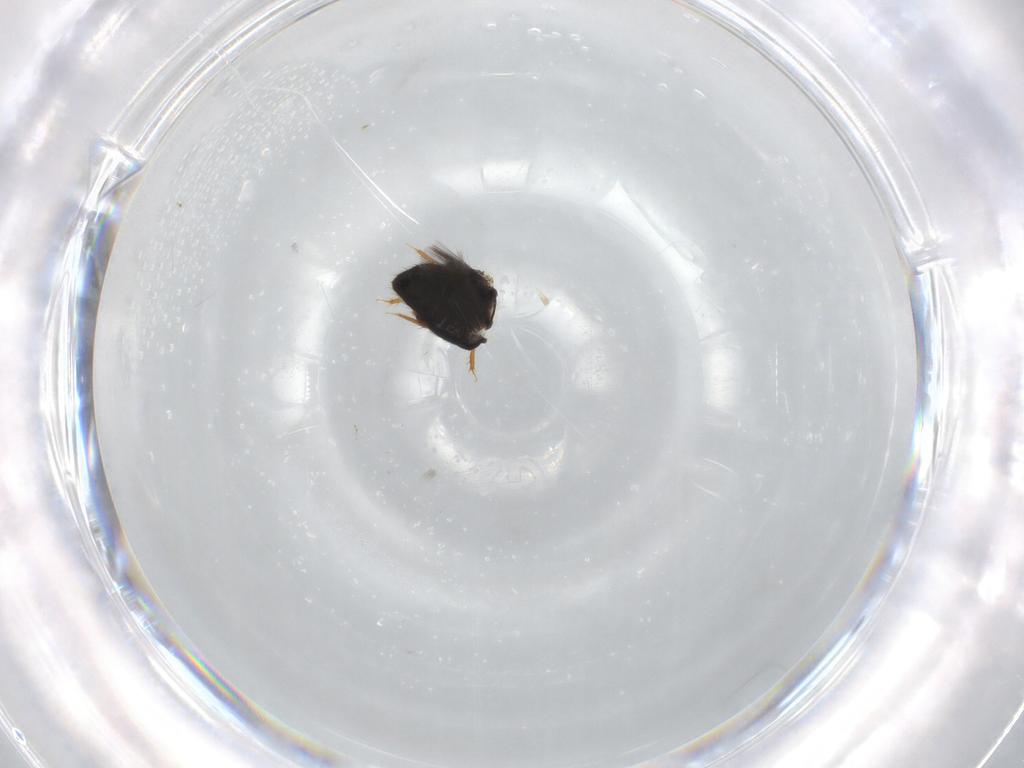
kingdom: Animalia
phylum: Arthropoda
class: Insecta
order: Coleoptera
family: Ptiliidae
